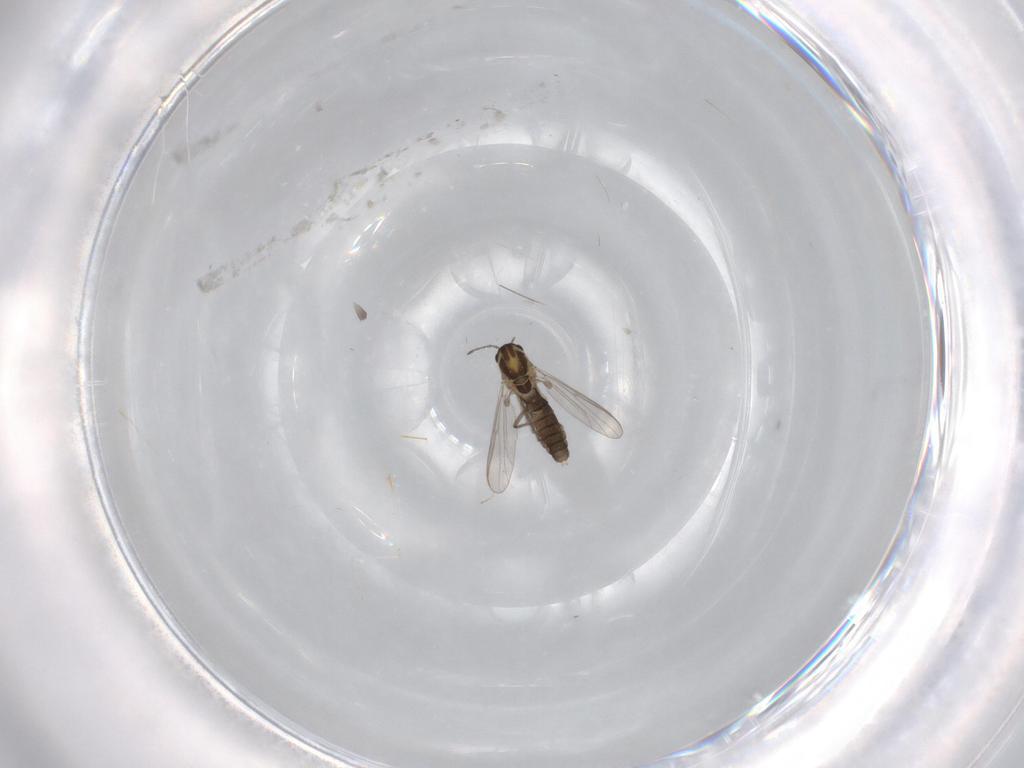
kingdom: Animalia
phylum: Arthropoda
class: Insecta
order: Diptera
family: Chironomidae
